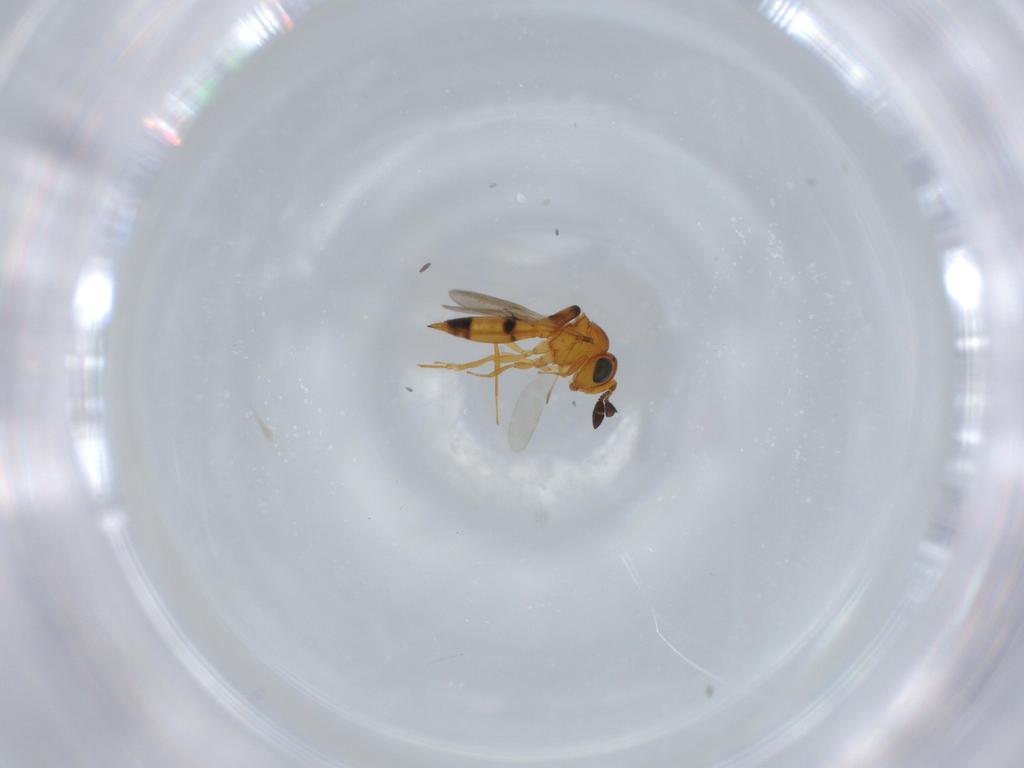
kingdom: Animalia
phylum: Arthropoda
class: Insecta
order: Hymenoptera
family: Scelionidae
